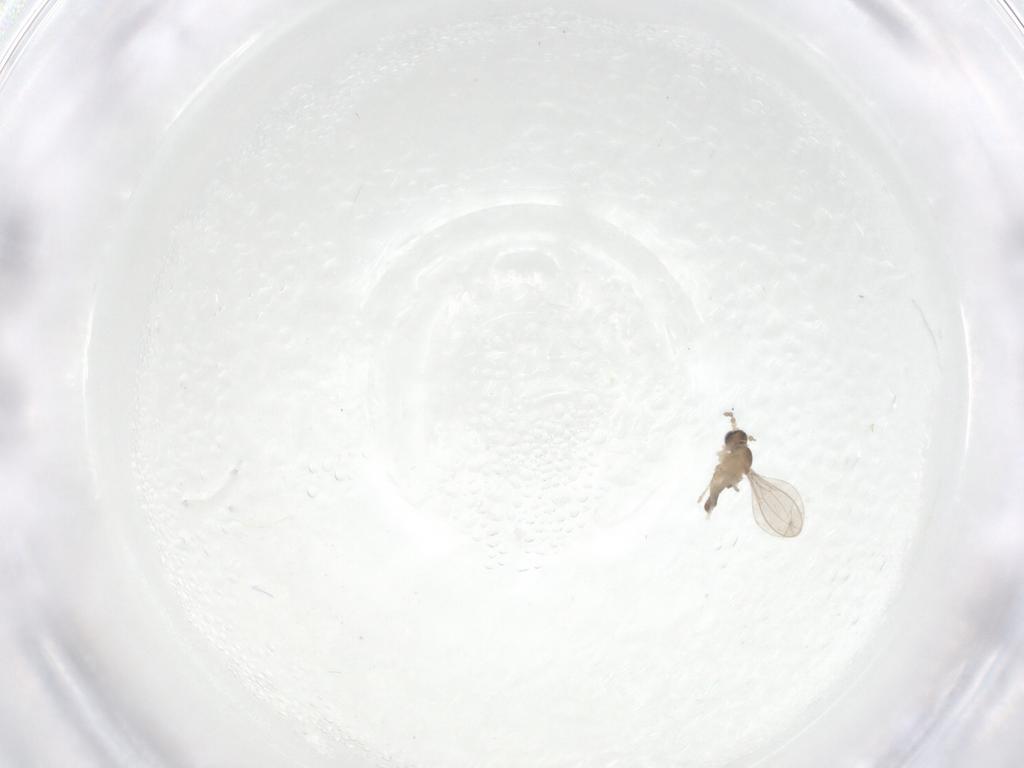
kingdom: Animalia
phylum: Arthropoda
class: Insecta
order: Diptera
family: Cecidomyiidae
